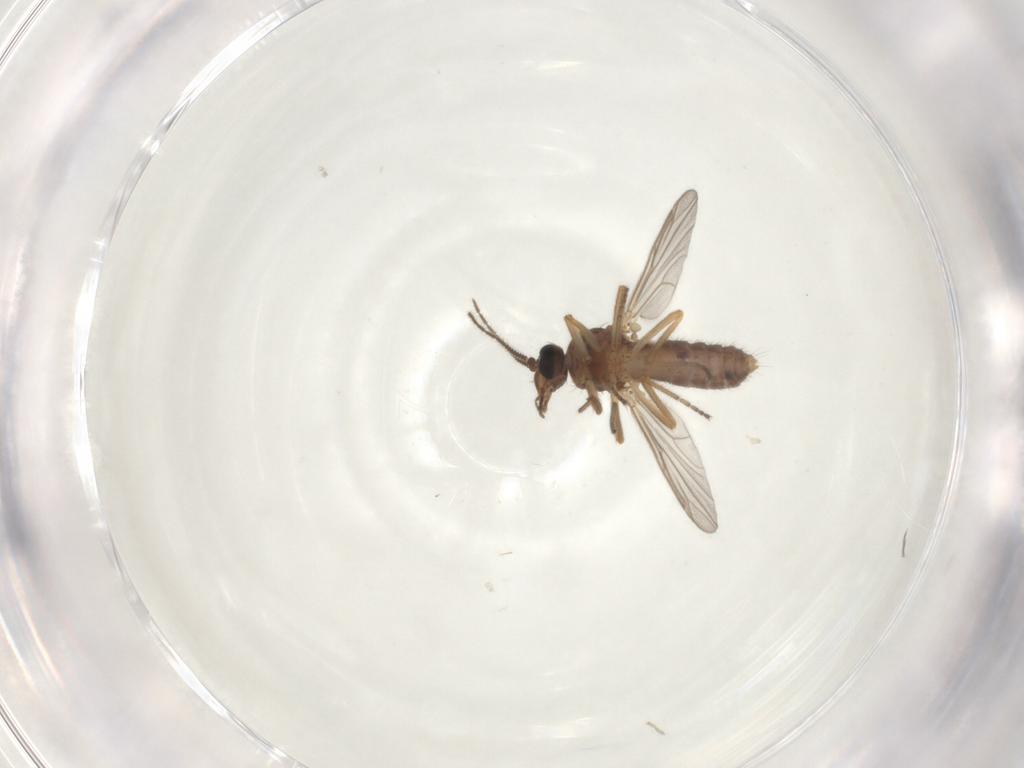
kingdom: Animalia
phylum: Arthropoda
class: Insecta
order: Diptera
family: Ceratopogonidae
